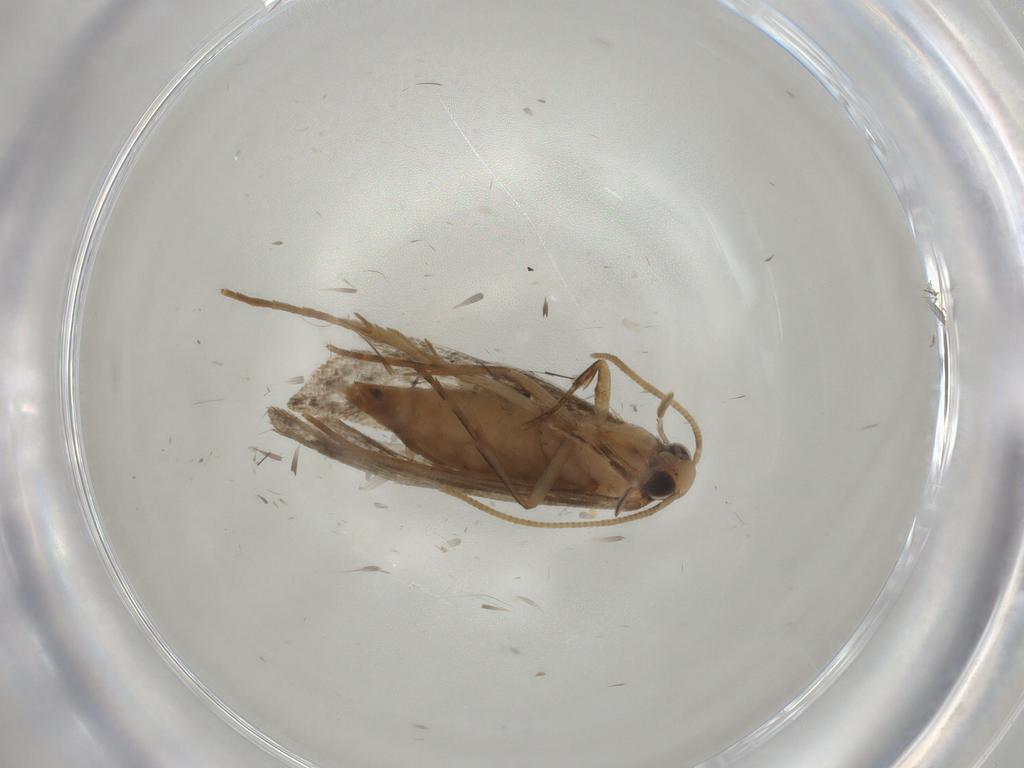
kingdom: Animalia
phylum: Arthropoda
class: Insecta
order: Lepidoptera
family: Tineidae
